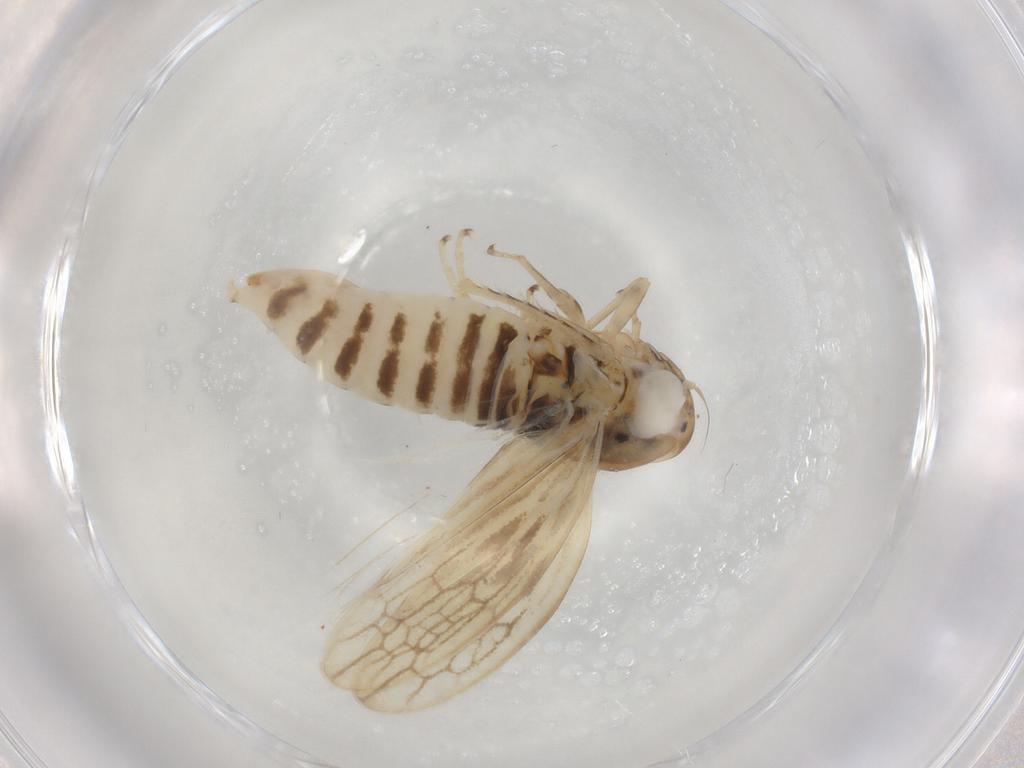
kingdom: Animalia
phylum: Arthropoda
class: Insecta
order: Hemiptera
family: Cicadellidae
